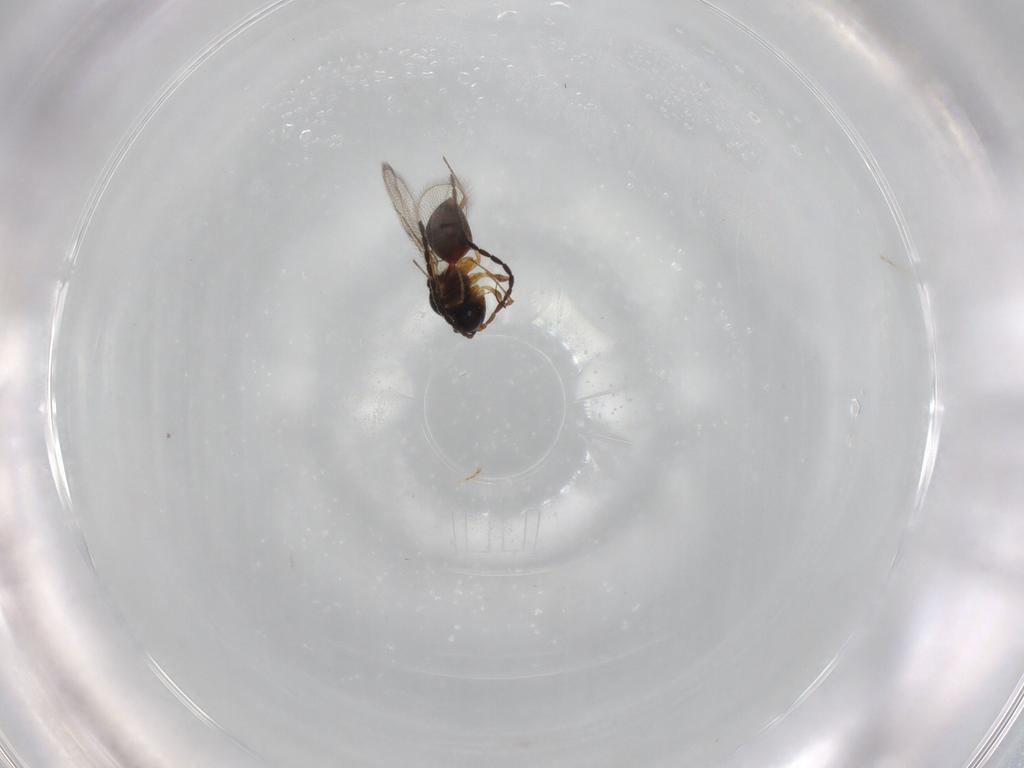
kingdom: Animalia
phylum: Arthropoda
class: Insecta
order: Hymenoptera
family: Figitidae
